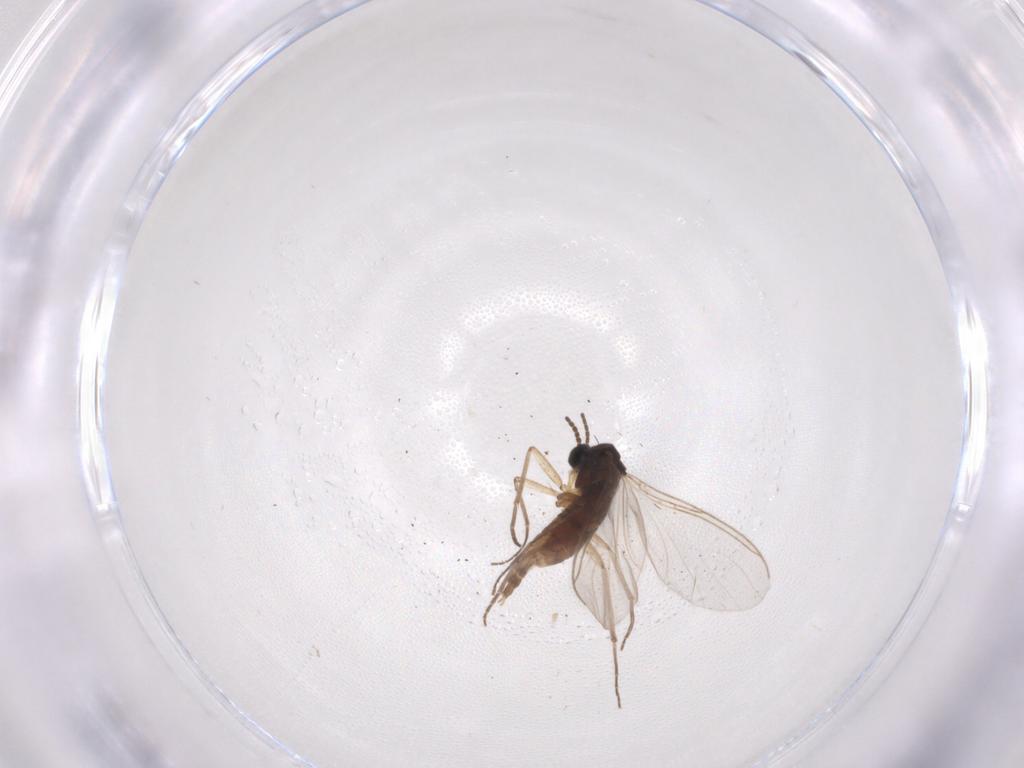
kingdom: Animalia
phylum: Arthropoda
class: Insecta
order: Diptera
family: Sciaridae
